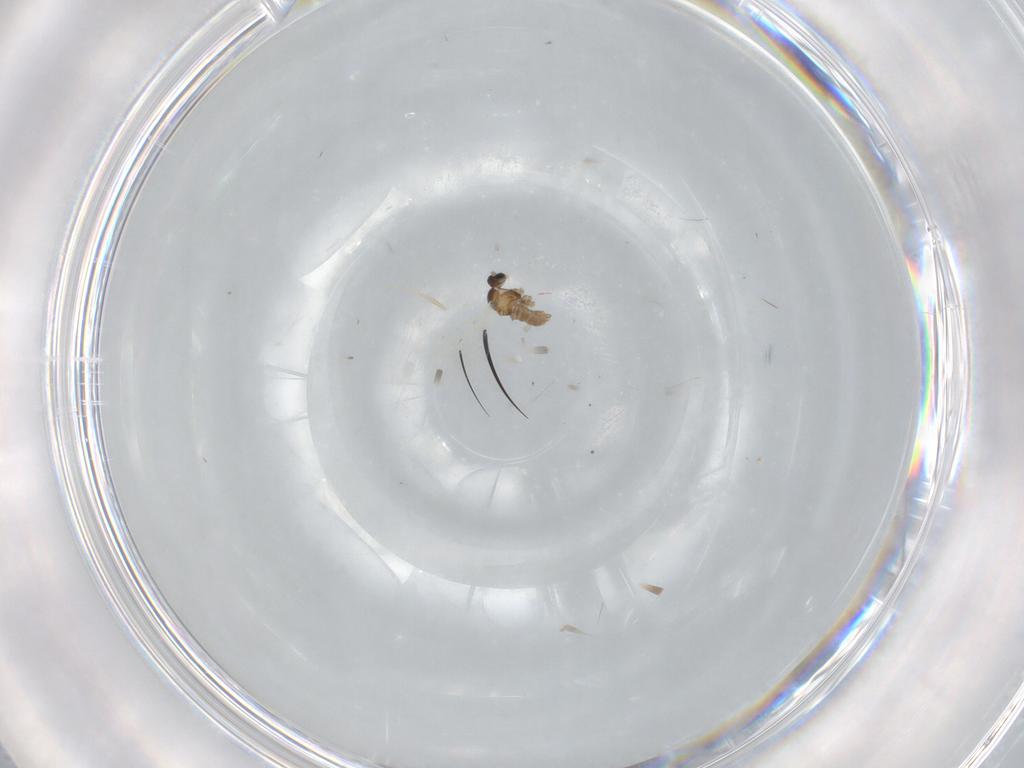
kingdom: Animalia
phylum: Arthropoda
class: Insecta
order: Diptera
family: Cecidomyiidae
